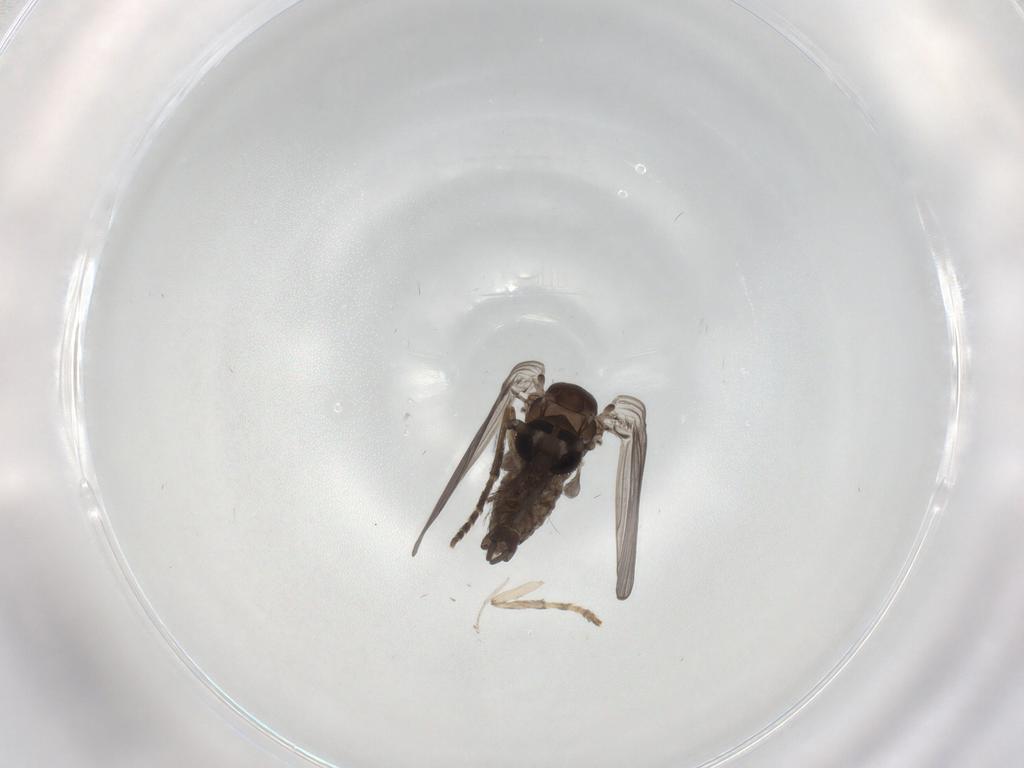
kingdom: Animalia
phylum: Arthropoda
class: Insecta
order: Diptera
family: Psychodidae
